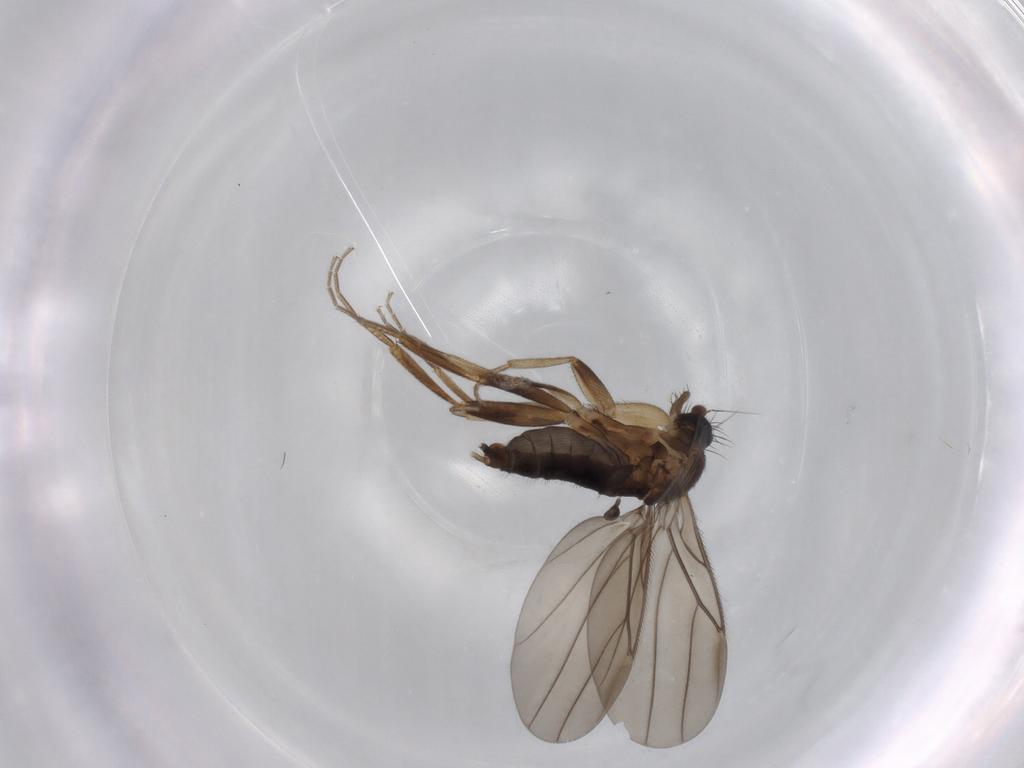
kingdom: Animalia
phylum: Arthropoda
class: Insecta
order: Diptera
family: Phoridae
